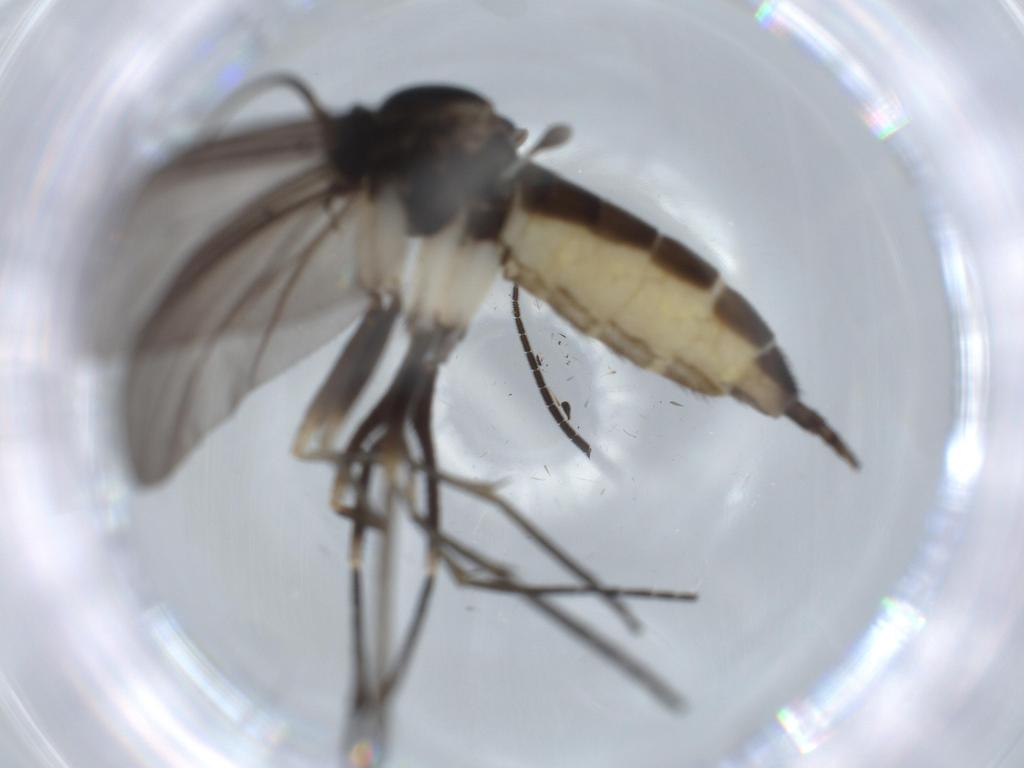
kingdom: Animalia
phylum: Arthropoda
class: Insecta
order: Diptera
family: Sciaridae
